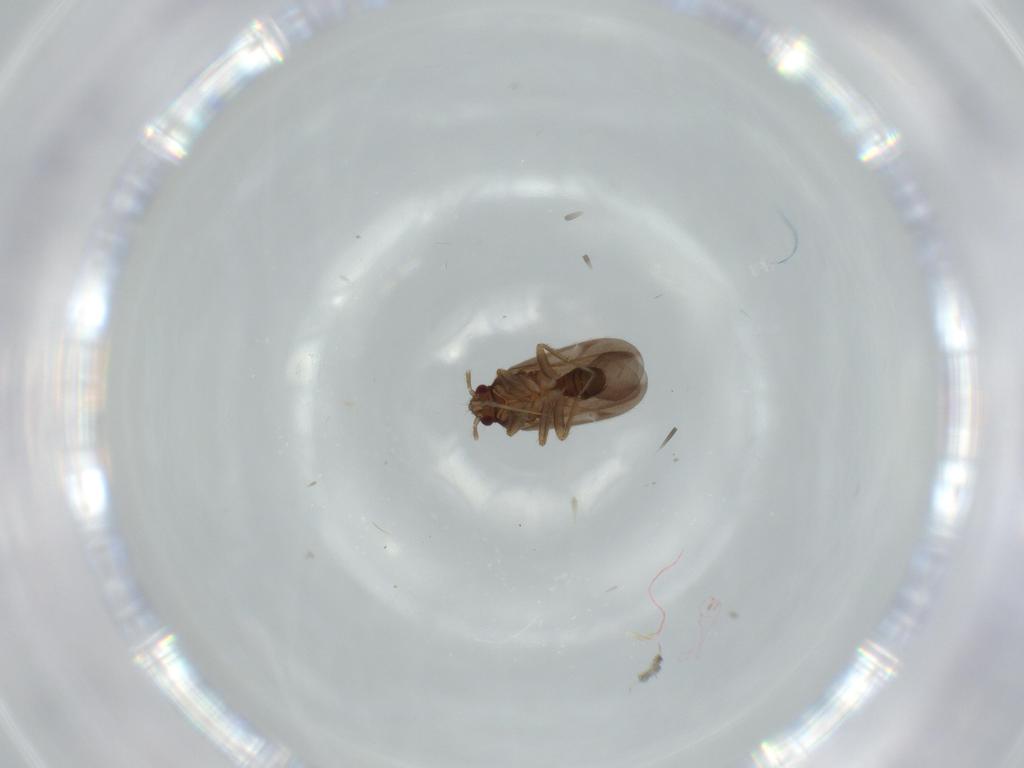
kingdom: Animalia
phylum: Arthropoda
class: Insecta
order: Hemiptera
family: Ceratocombidae
